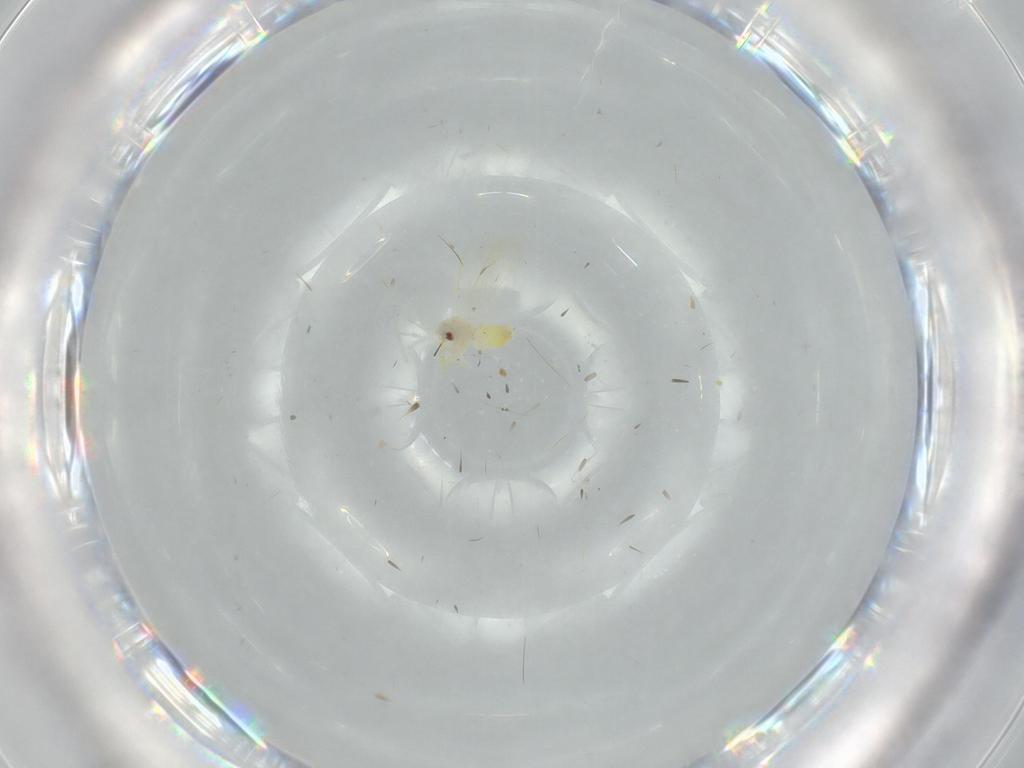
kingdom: Animalia
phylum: Arthropoda
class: Insecta
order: Hemiptera
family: Aleyrodidae
